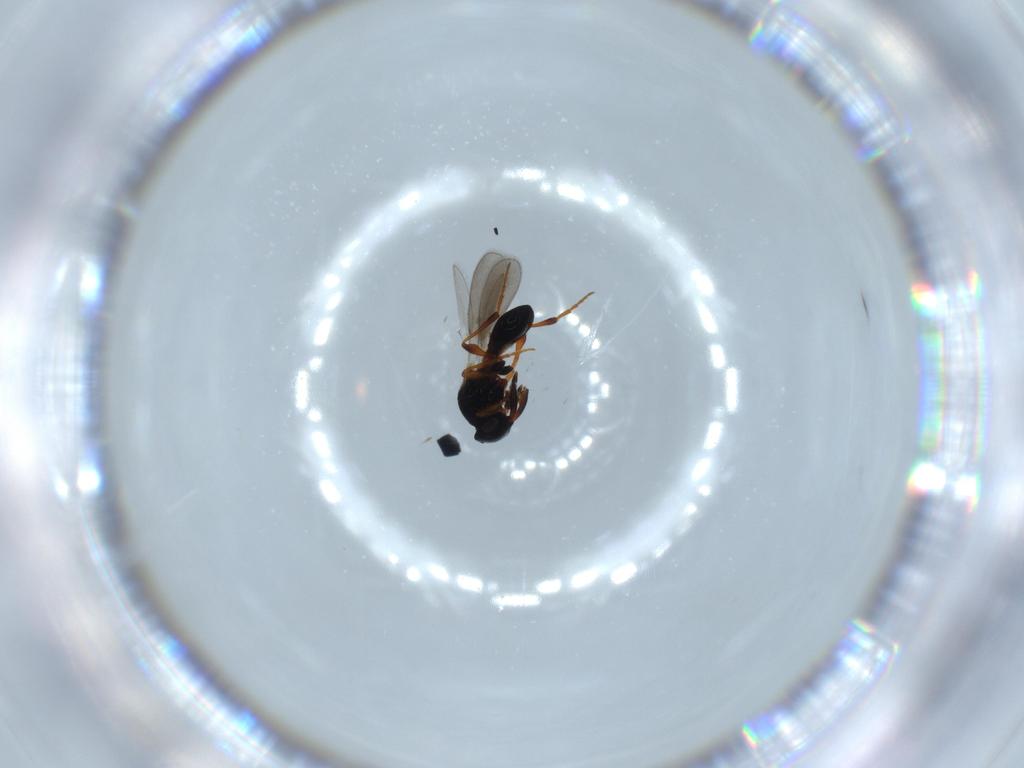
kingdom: Animalia
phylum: Arthropoda
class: Insecta
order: Hymenoptera
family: Platygastridae
